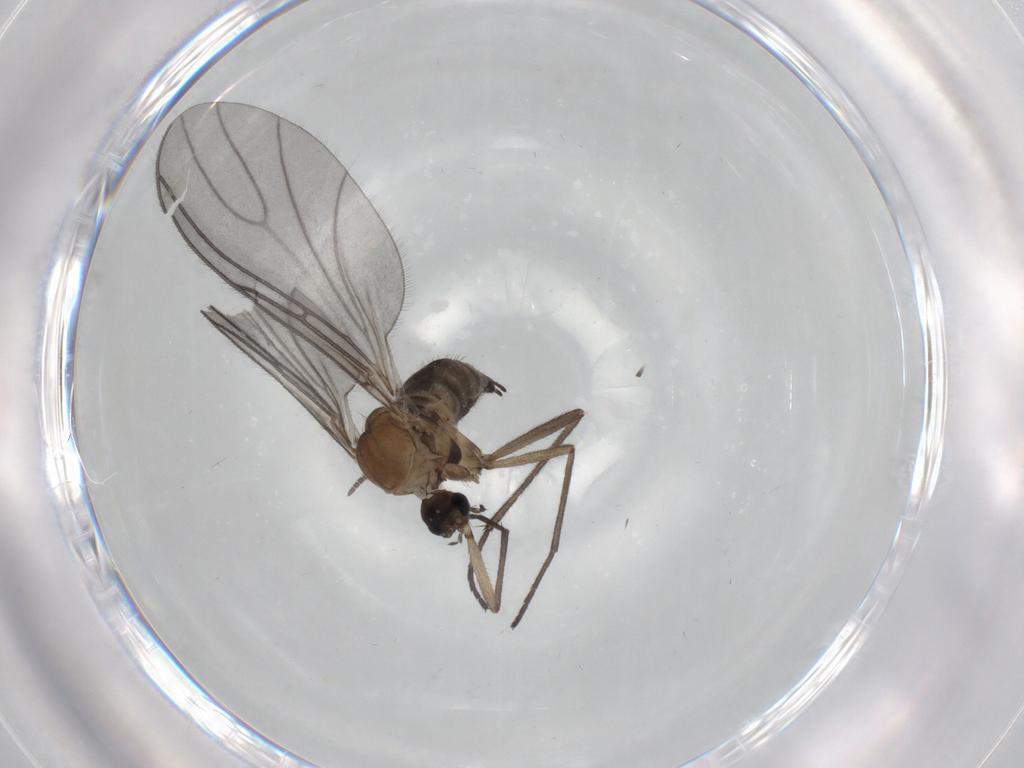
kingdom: Animalia
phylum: Arthropoda
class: Insecta
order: Diptera
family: Sciaridae
